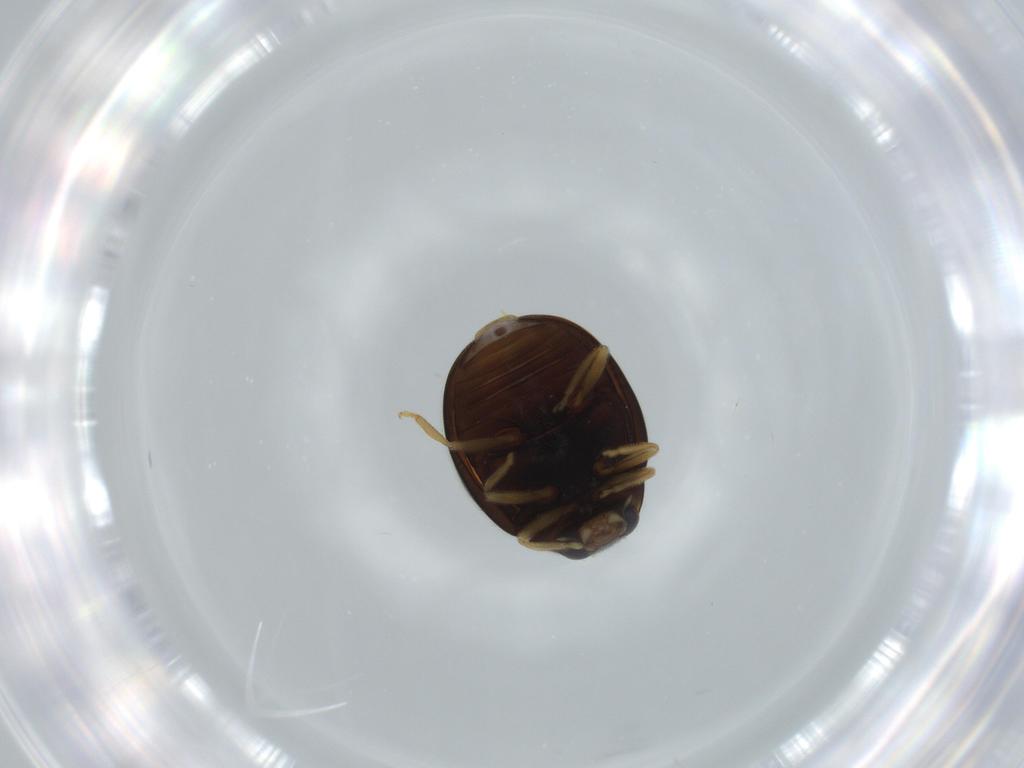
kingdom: Animalia
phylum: Arthropoda
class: Insecta
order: Coleoptera
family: Coccinellidae
